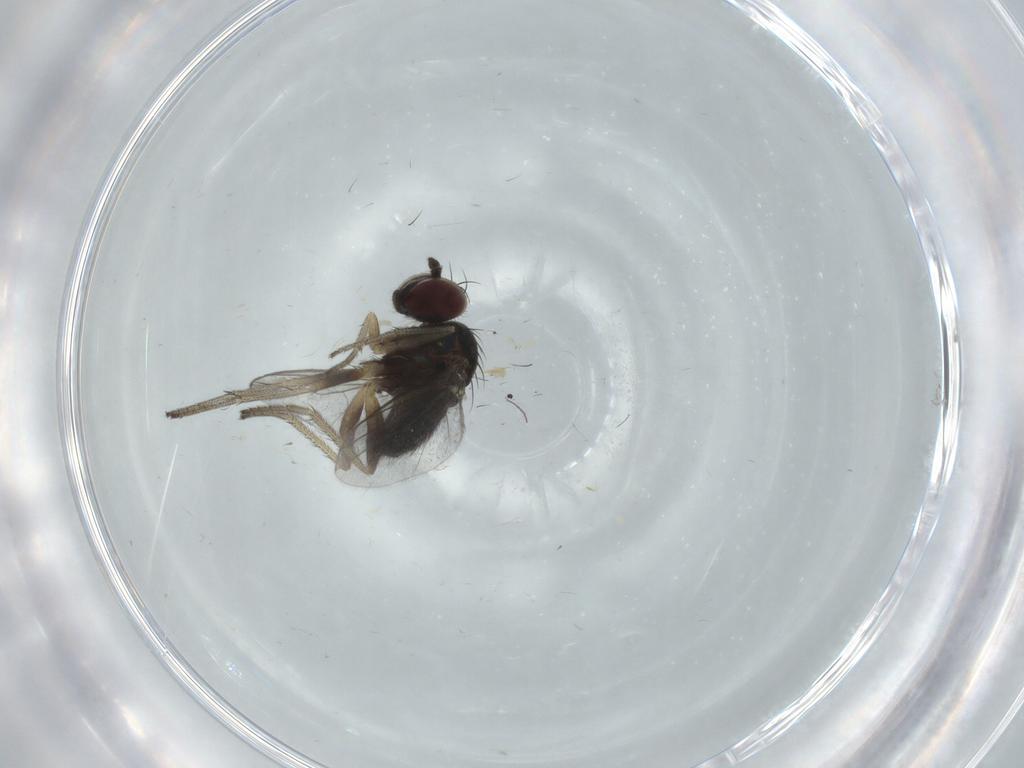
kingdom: Animalia
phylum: Arthropoda
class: Insecta
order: Diptera
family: Dolichopodidae
